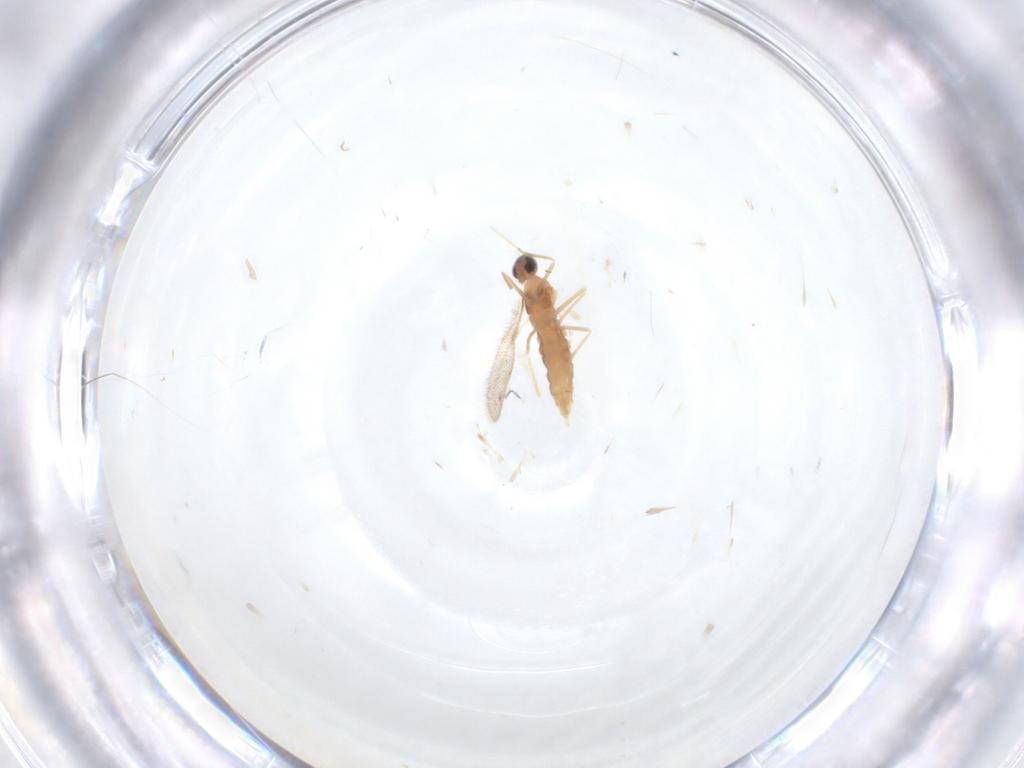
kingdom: Animalia
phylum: Arthropoda
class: Insecta
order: Diptera
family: Cecidomyiidae
